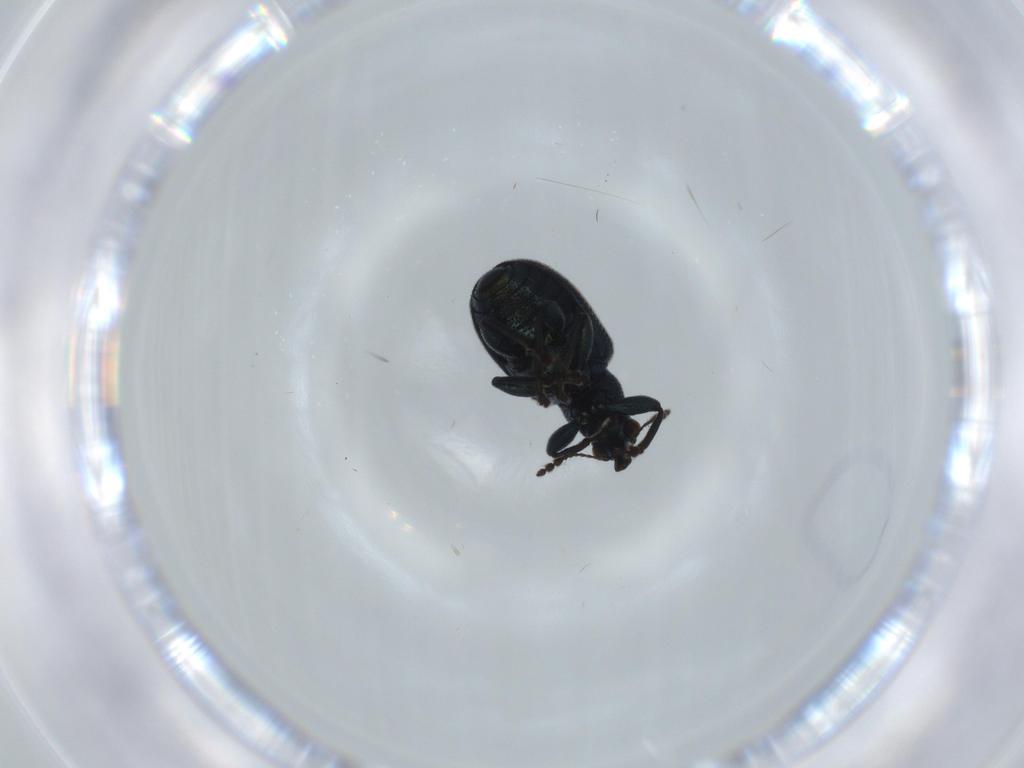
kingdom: Animalia
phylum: Arthropoda
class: Insecta
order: Coleoptera
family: Attelabidae
